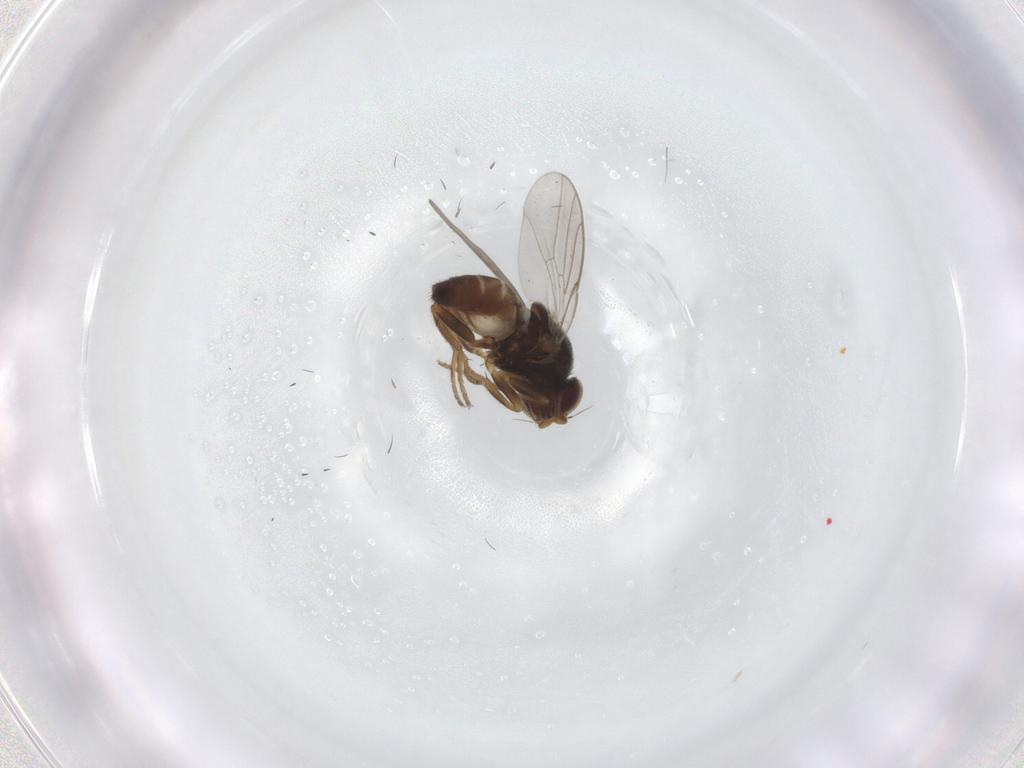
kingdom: Animalia
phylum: Arthropoda
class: Insecta
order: Diptera
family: Chloropidae
